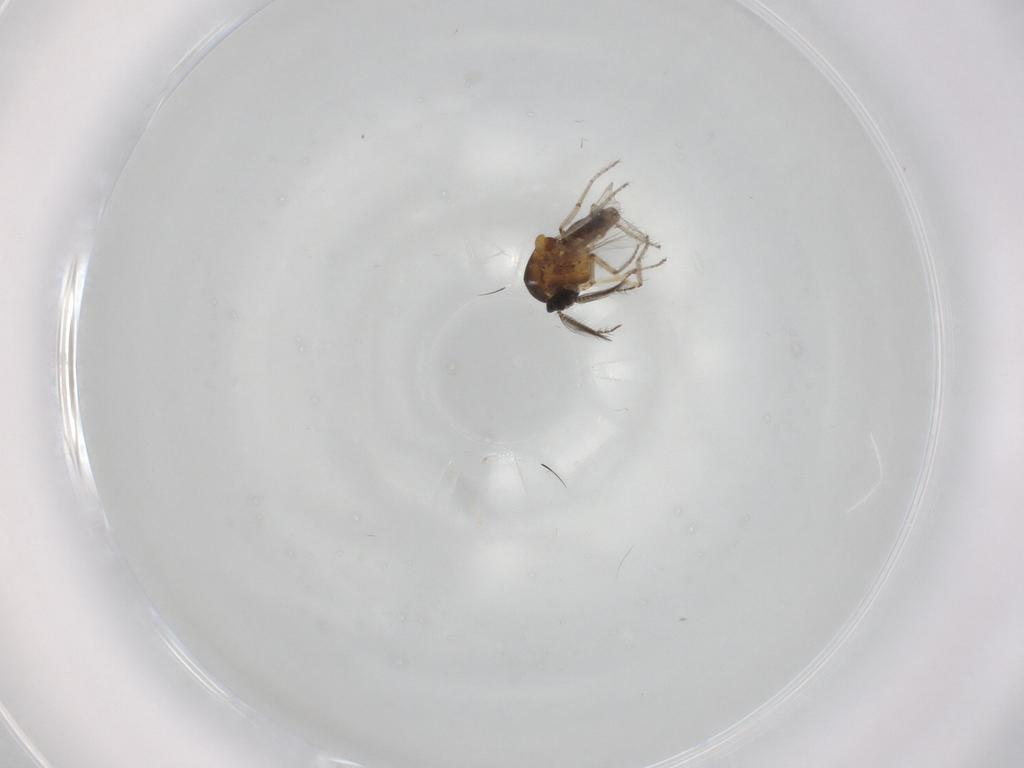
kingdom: Animalia
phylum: Arthropoda
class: Insecta
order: Diptera
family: Ceratopogonidae
